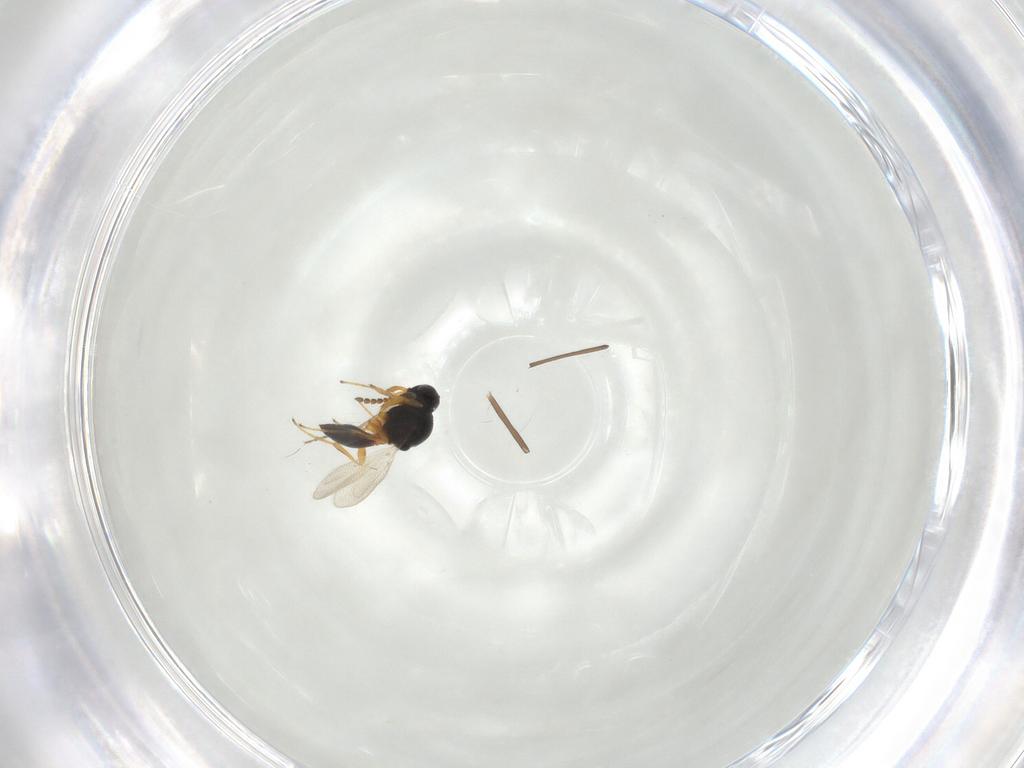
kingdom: Animalia
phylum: Arthropoda
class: Insecta
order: Hymenoptera
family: Platygastridae
